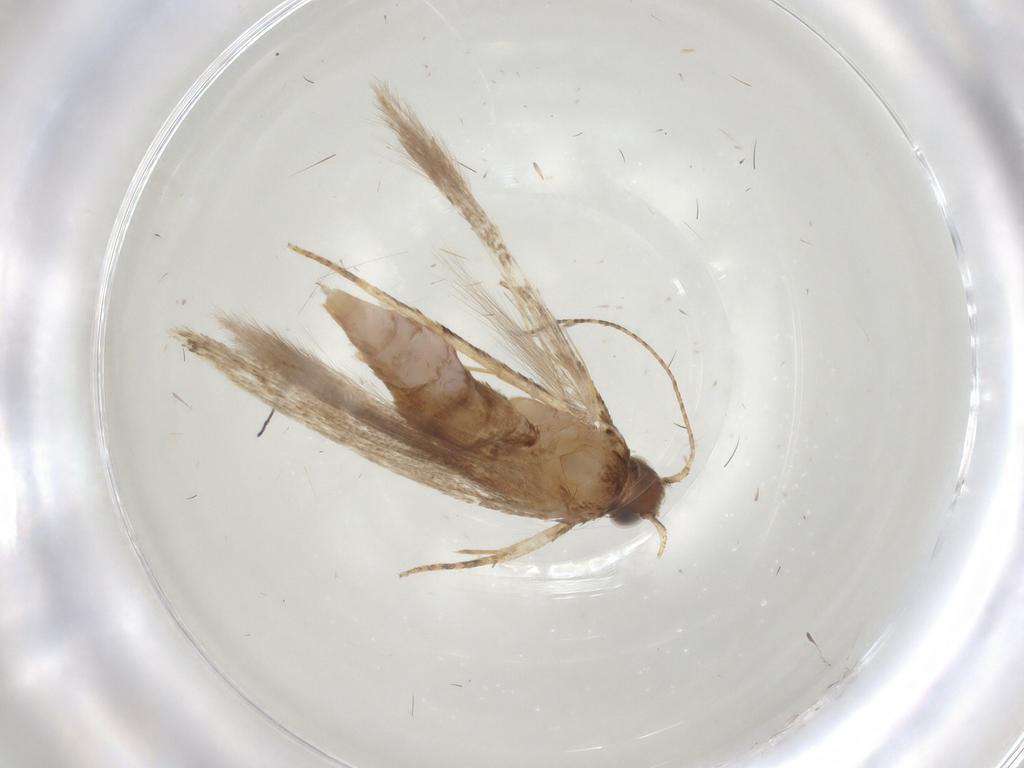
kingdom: Animalia
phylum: Arthropoda
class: Insecta
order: Lepidoptera
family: Gelechiidae
